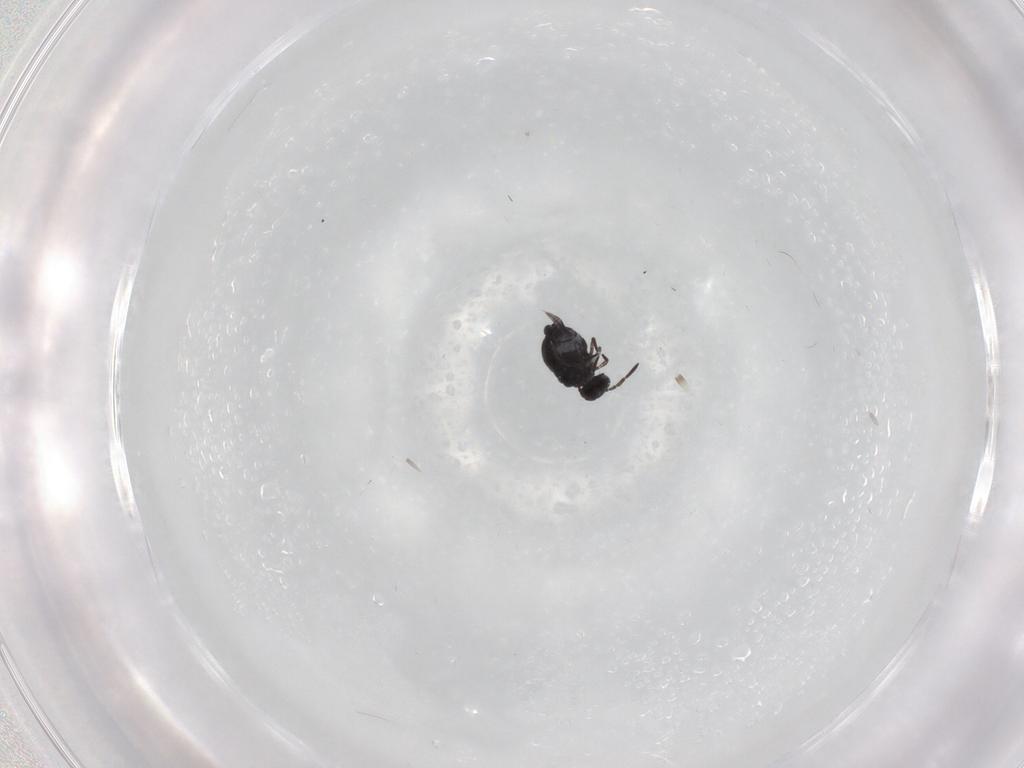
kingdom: Animalia
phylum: Arthropoda
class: Collembola
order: Symphypleona
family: Katiannidae
